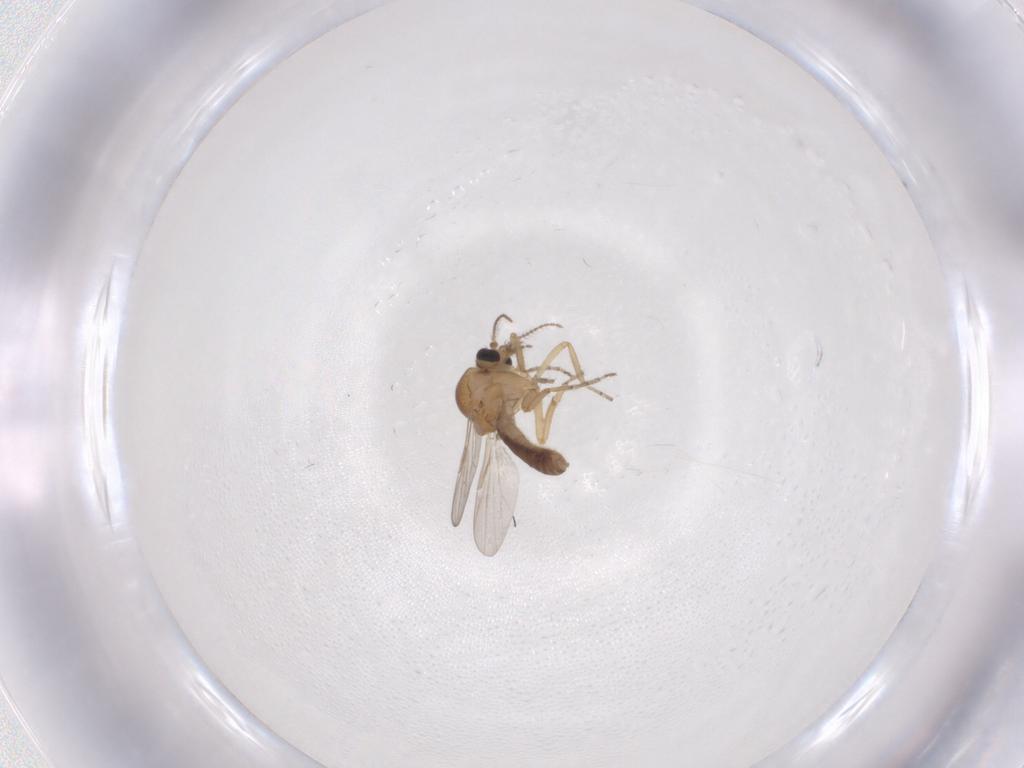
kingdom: Animalia
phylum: Arthropoda
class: Insecta
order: Diptera
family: Ceratopogonidae
